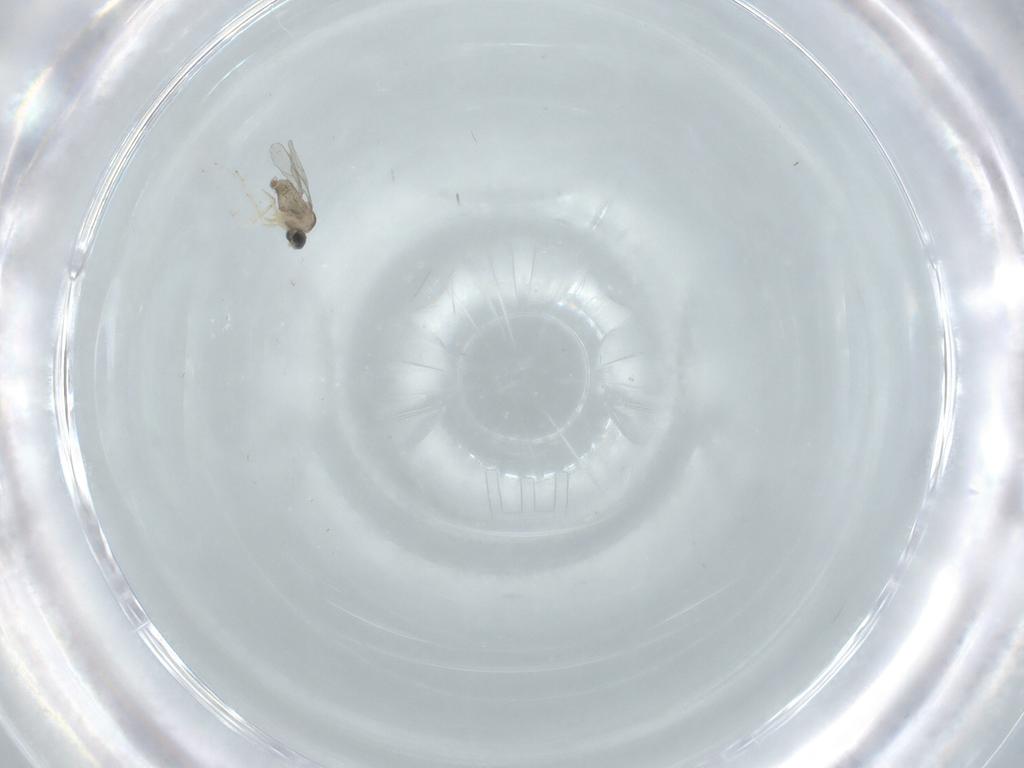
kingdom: Animalia
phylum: Arthropoda
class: Insecta
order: Diptera
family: Cecidomyiidae
